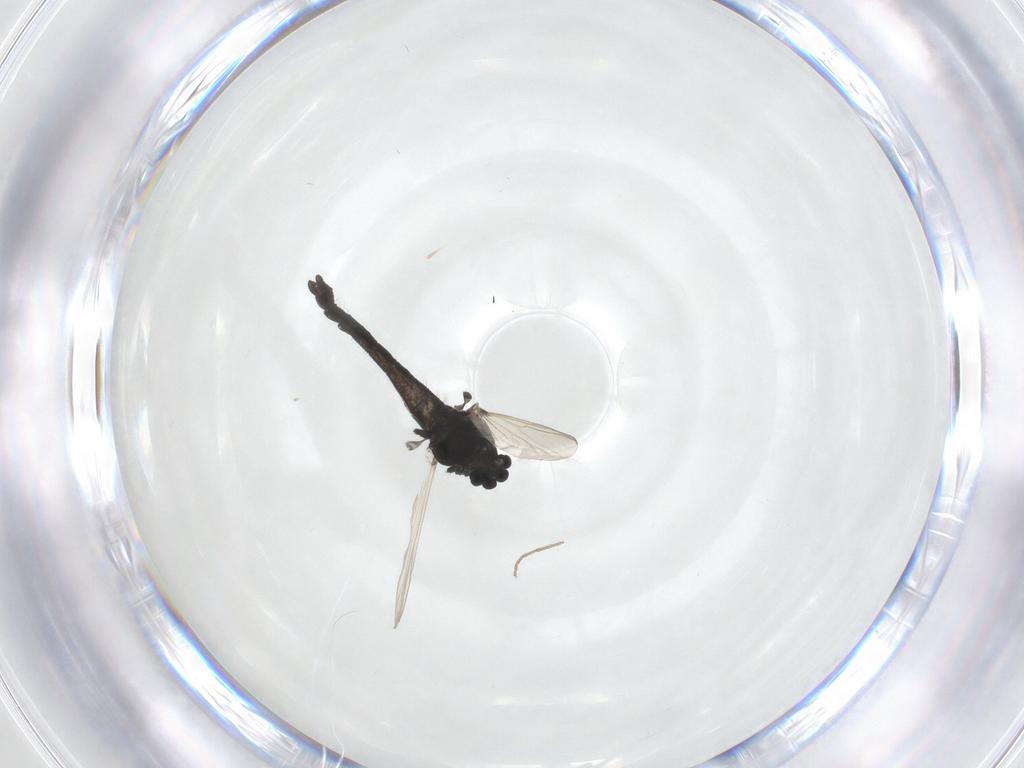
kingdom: Animalia
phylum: Arthropoda
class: Insecta
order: Diptera
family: Chironomidae
